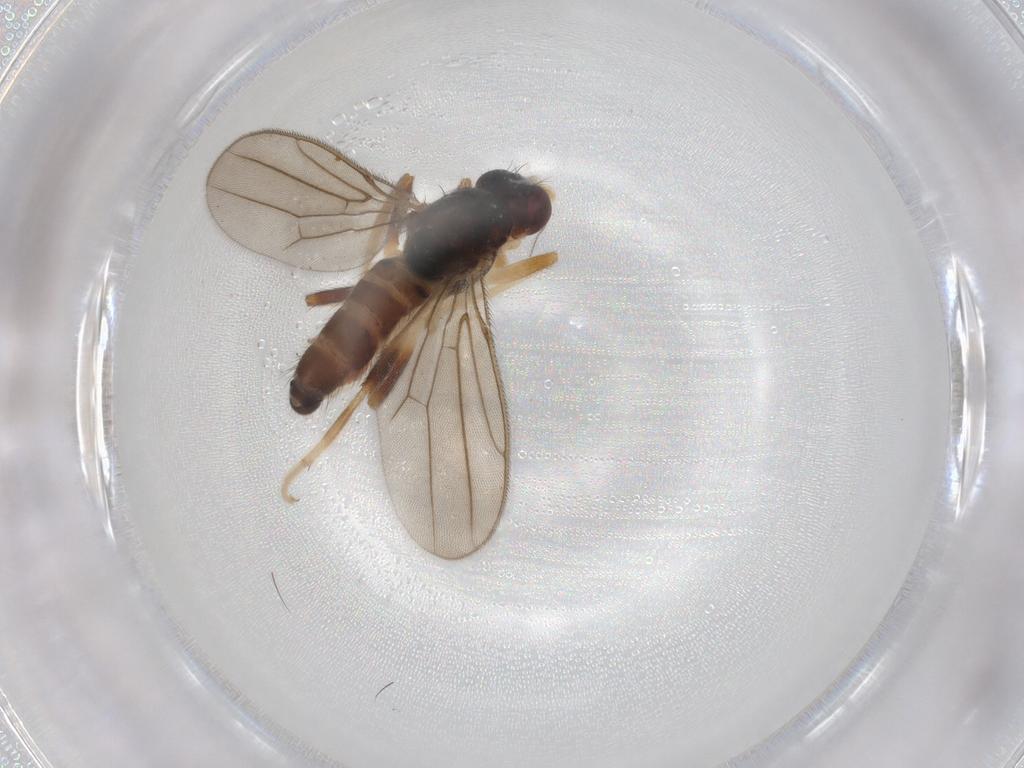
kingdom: Animalia
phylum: Arthropoda
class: Insecta
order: Diptera
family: Chloropidae
